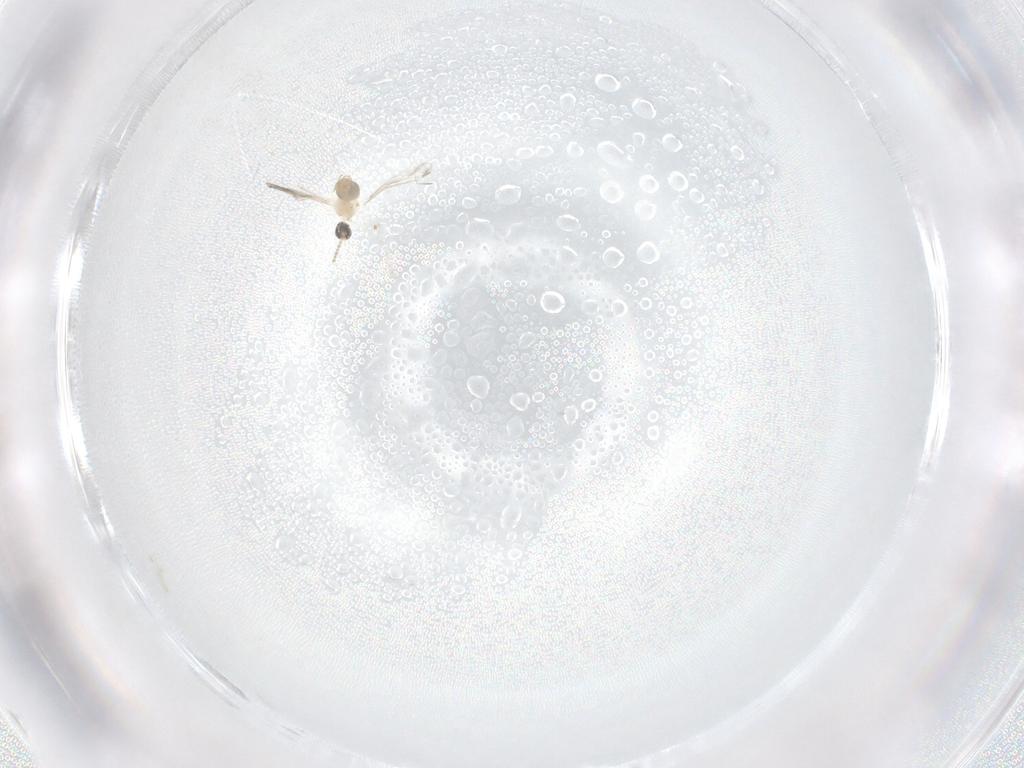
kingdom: Animalia
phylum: Arthropoda
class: Insecta
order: Diptera
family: Cecidomyiidae
